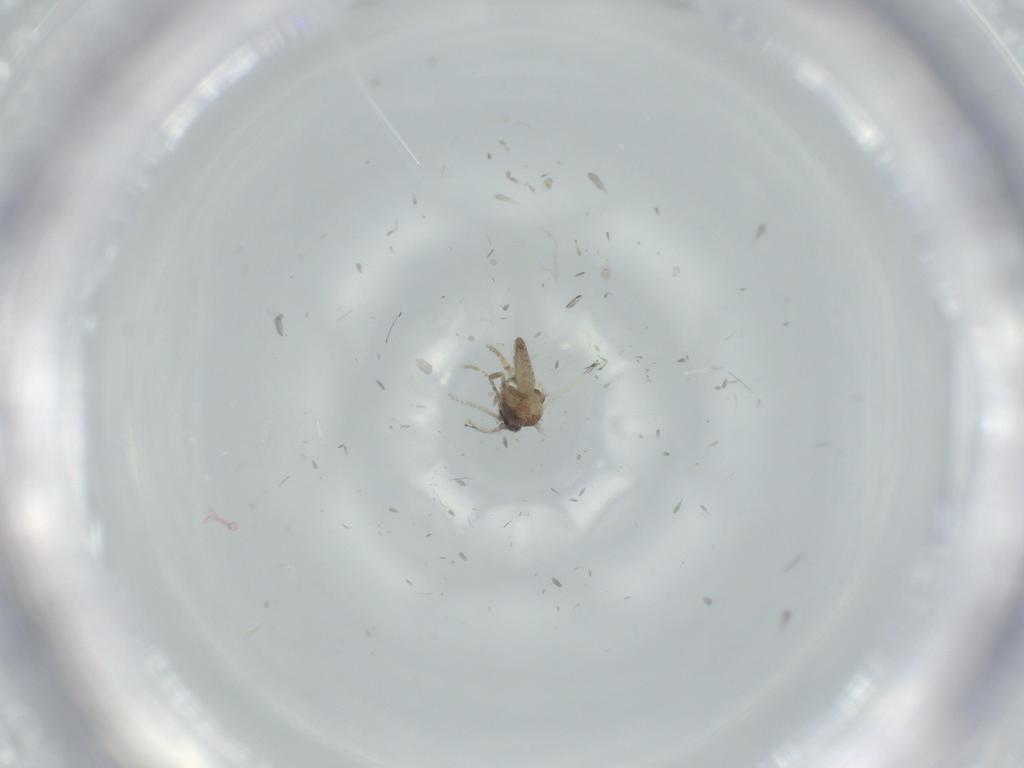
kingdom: Animalia
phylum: Arthropoda
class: Insecta
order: Diptera
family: Ceratopogonidae
